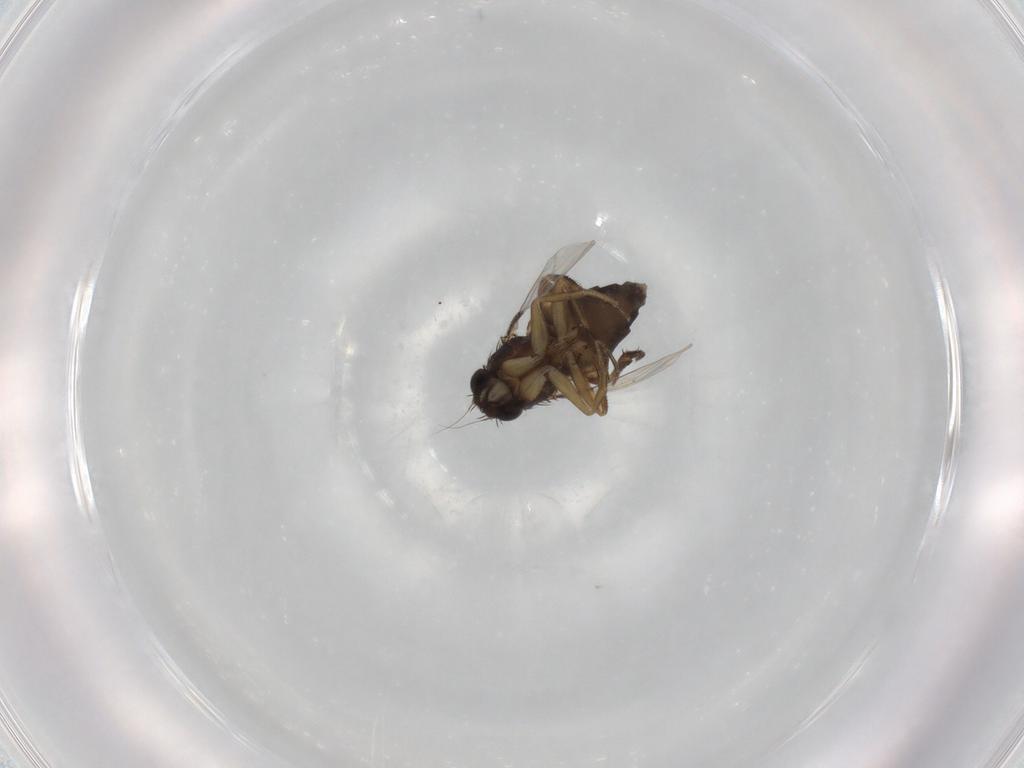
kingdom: Animalia
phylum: Arthropoda
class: Insecta
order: Diptera
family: Phoridae
